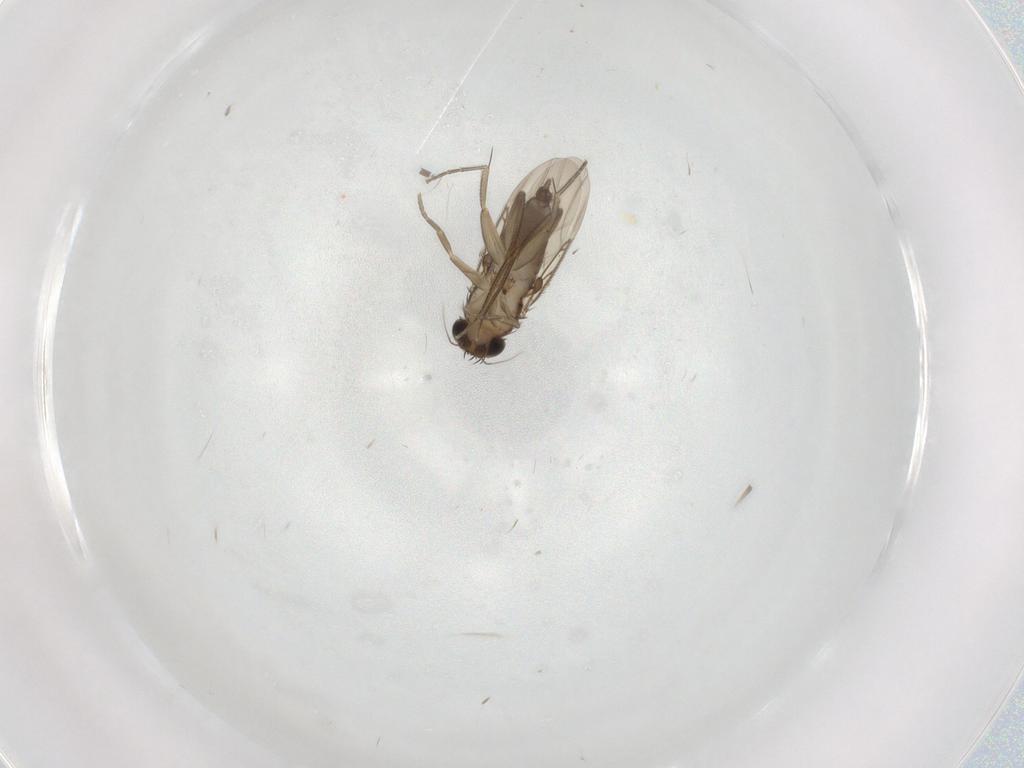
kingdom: Animalia
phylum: Arthropoda
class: Insecta
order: Diptera
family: Phoridae
